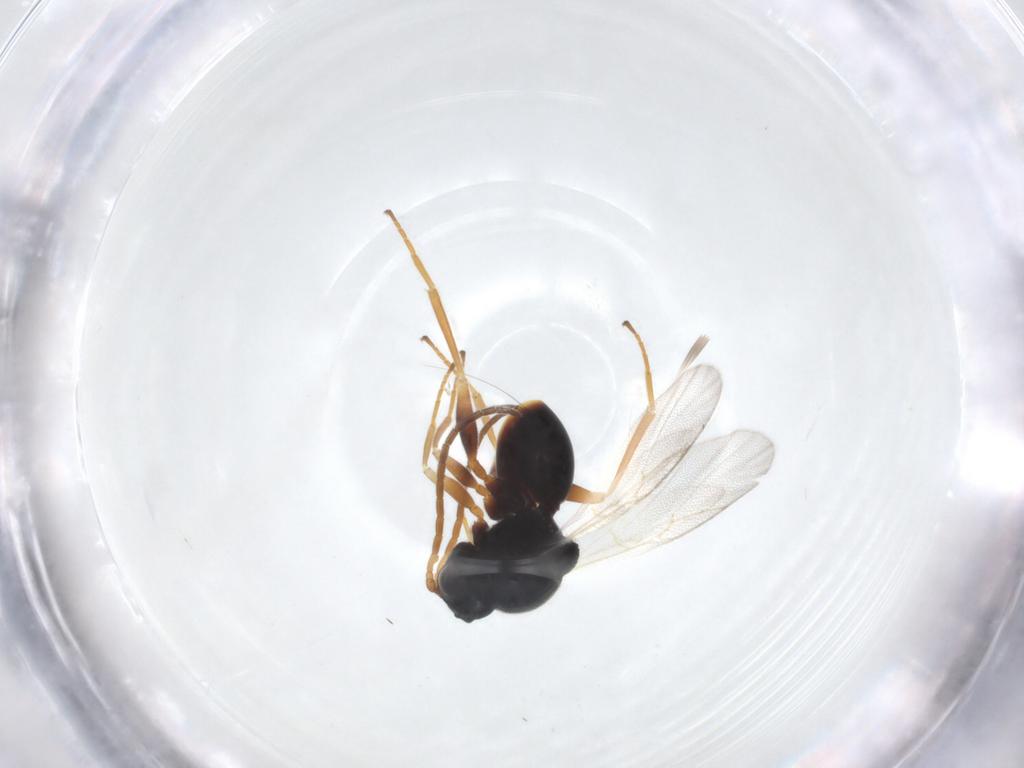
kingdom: Animalia
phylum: Arthropoda
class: Insecta
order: Hymenoptera
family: Cynipidae
